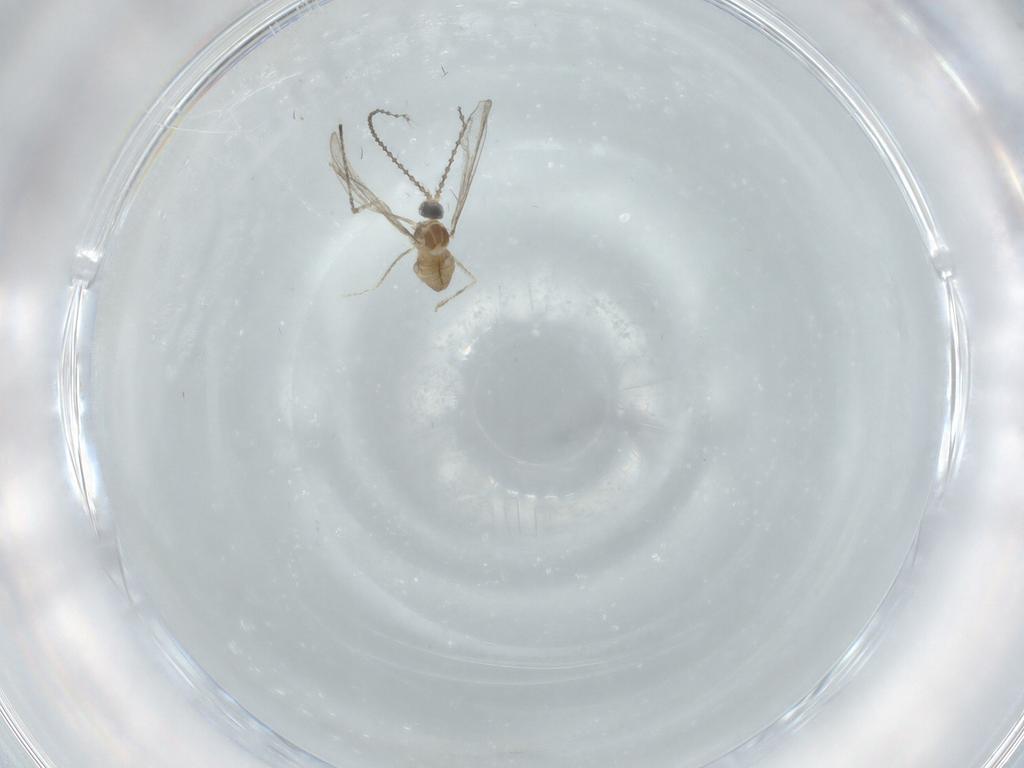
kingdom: Animalia
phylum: Arthropoda
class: Insecta
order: Diptera
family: Cecidomyiidae
